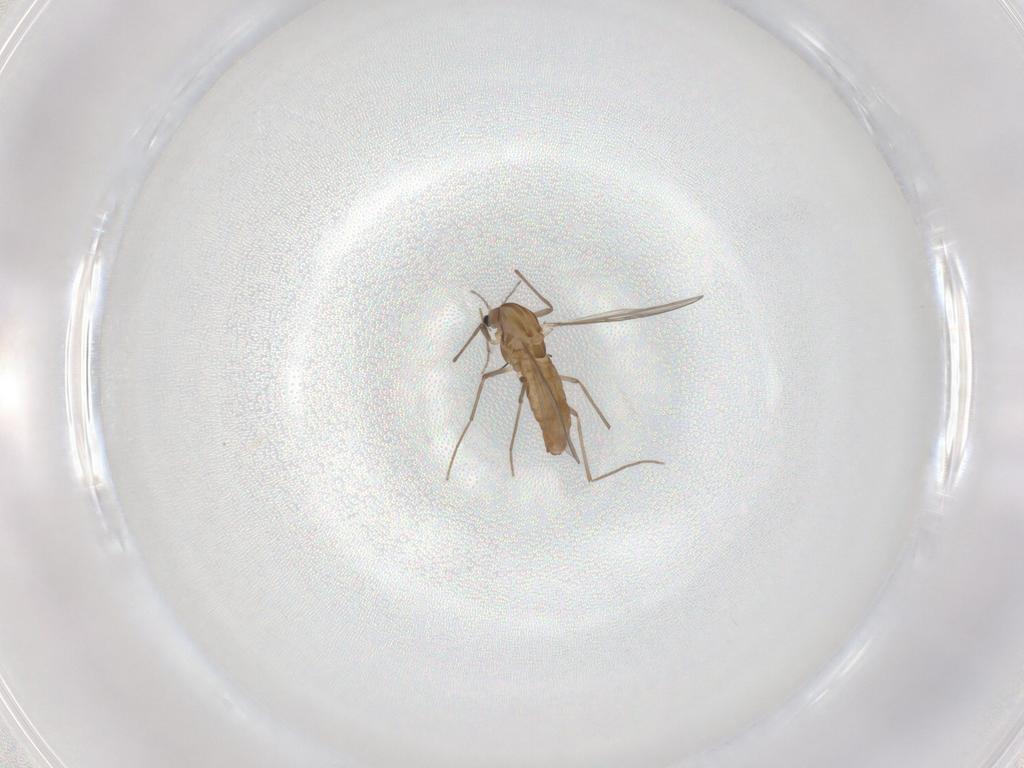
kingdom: Animalia
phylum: Arthropoda
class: Insecta
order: Diptera
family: Chironomidae
